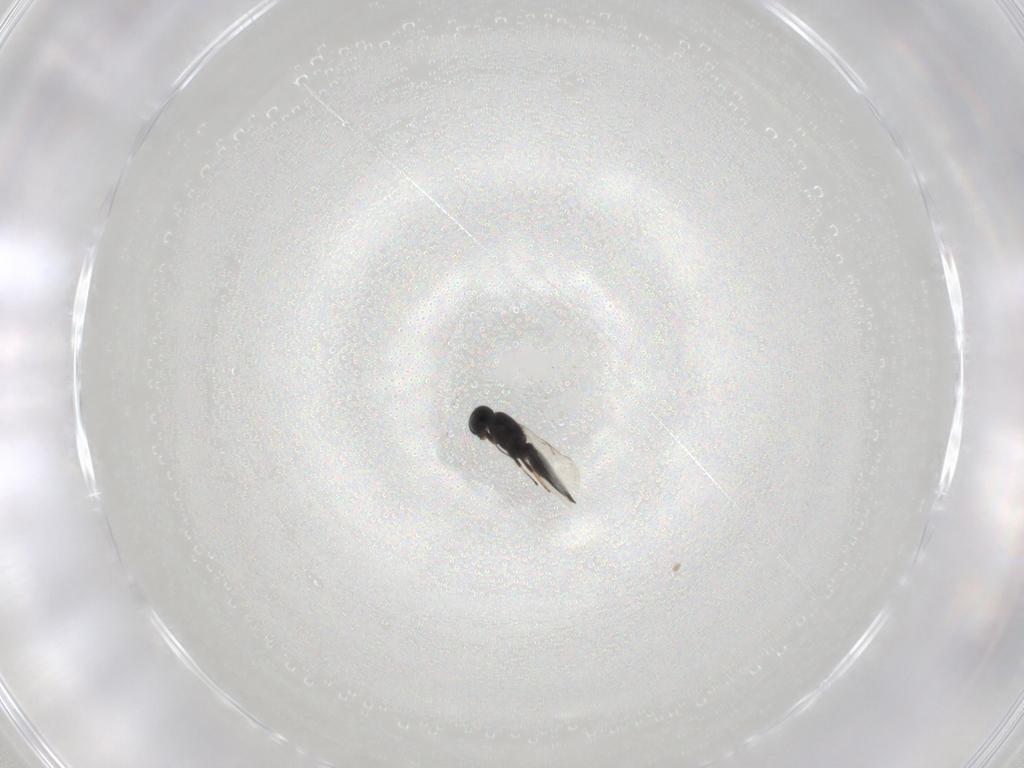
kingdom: Animalia
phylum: Arthropoda
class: Insecta
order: Hymenoptera
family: Scelionidae
